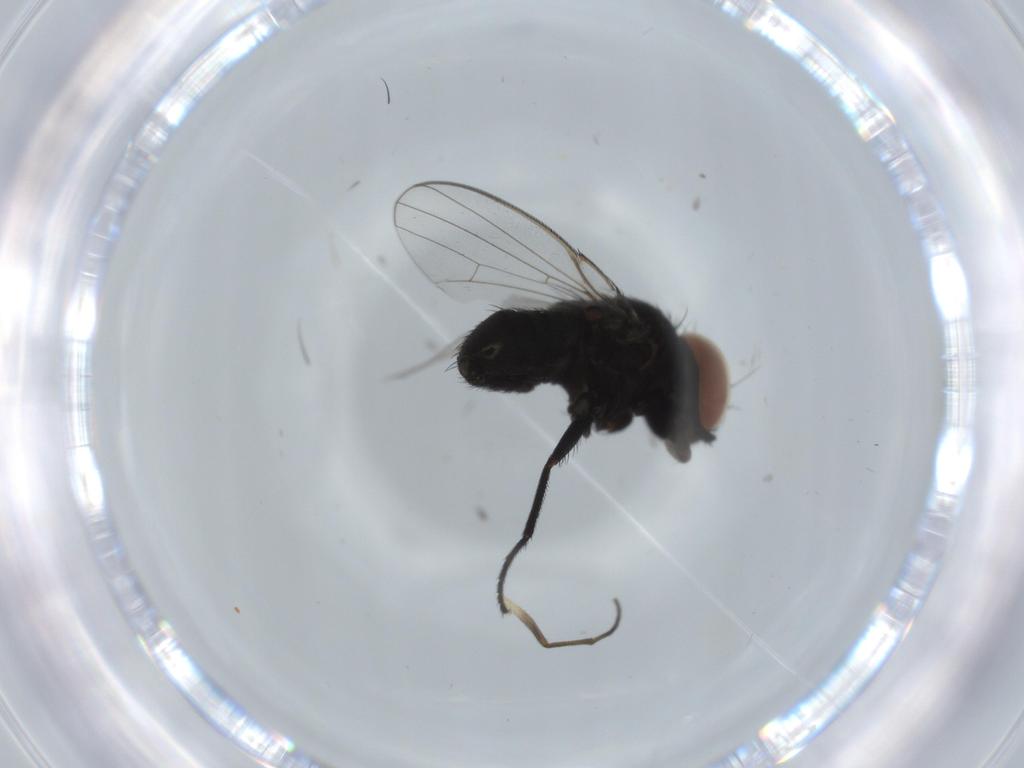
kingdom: Animalia
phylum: Arthropoda
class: Insecta
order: Diptera
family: Milichiidae
